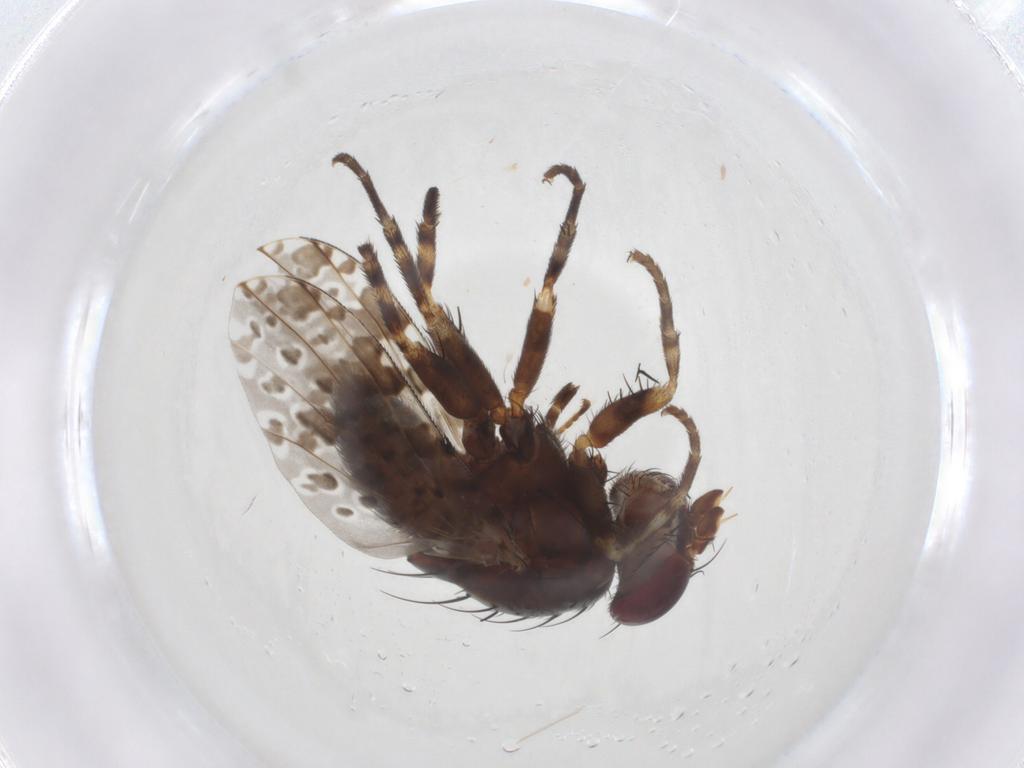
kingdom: Animalia
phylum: Arthropoda
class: Insecta
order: Diptera
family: Odiniidae
